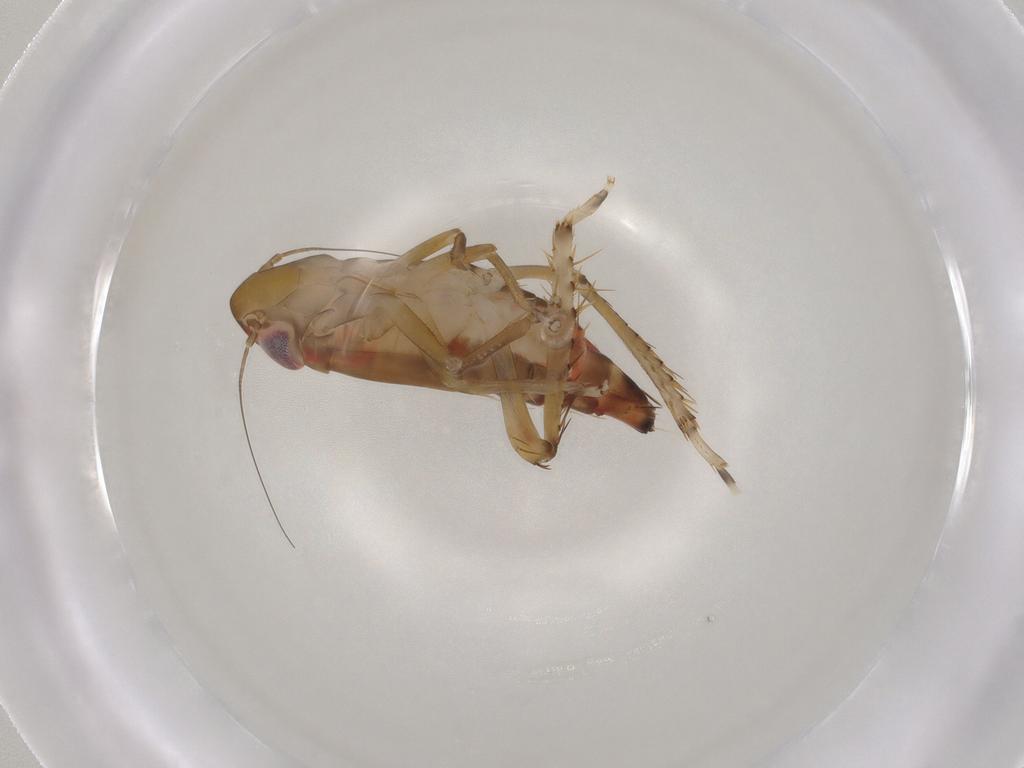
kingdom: Animalia
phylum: Arthropoda
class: Insecta
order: Hemiptera
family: Cicadellidae
